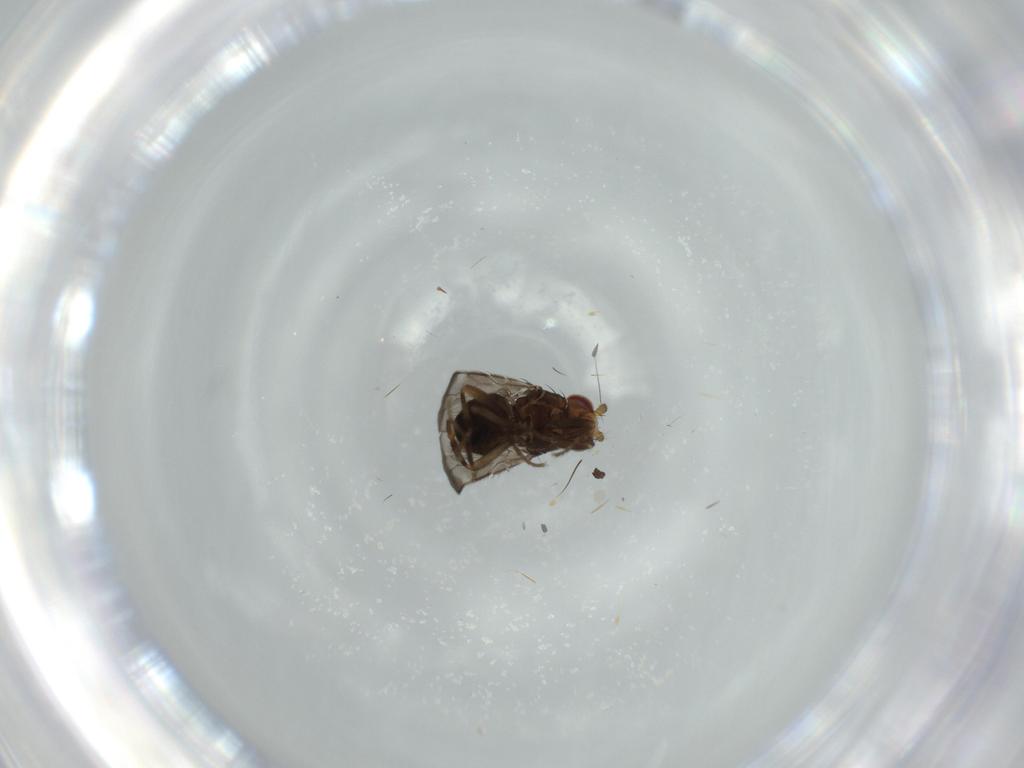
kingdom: Animalia
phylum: Arthropoda
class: Insecta
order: Diptera
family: Stratiomyidae
